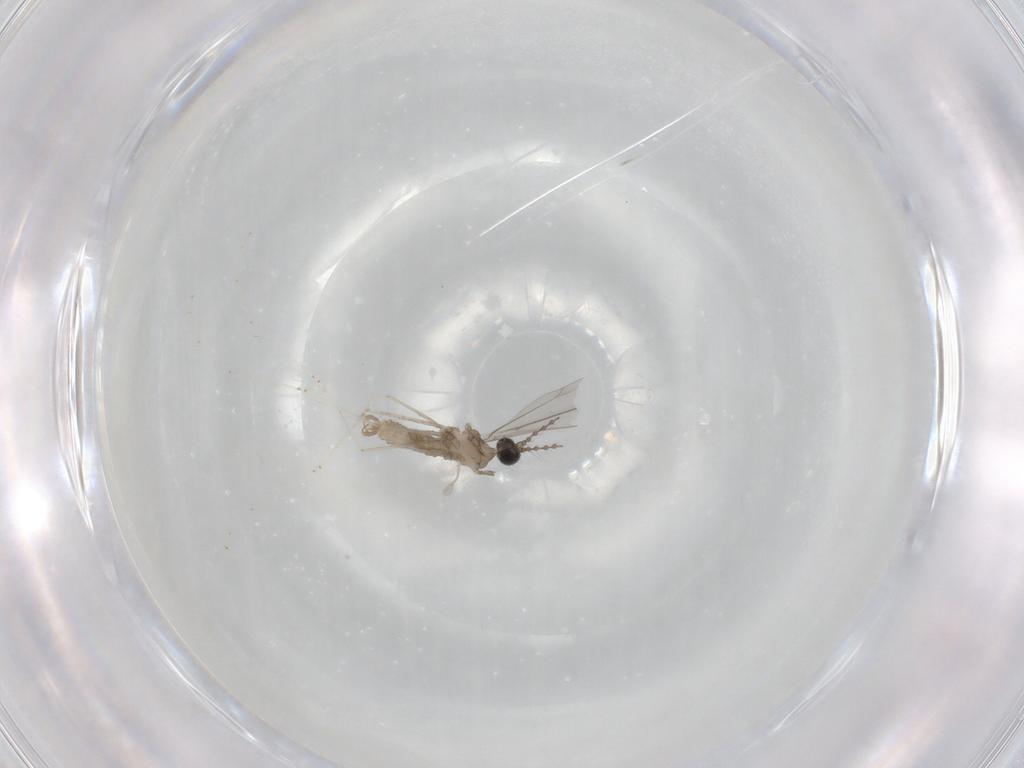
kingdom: Animalia
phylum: Arthropoda
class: Insecta
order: Diptera
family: Cecidomyiidae
